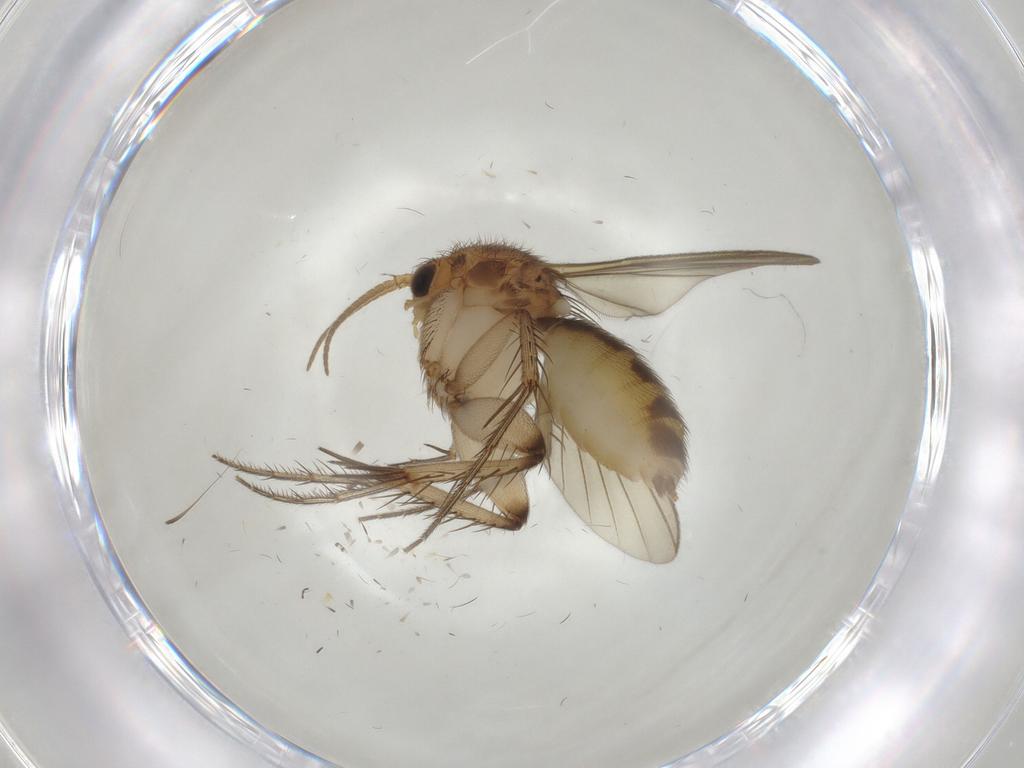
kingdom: Animalia
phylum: Arthropoda
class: Insecta
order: Diptera
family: Mycetophilidae
